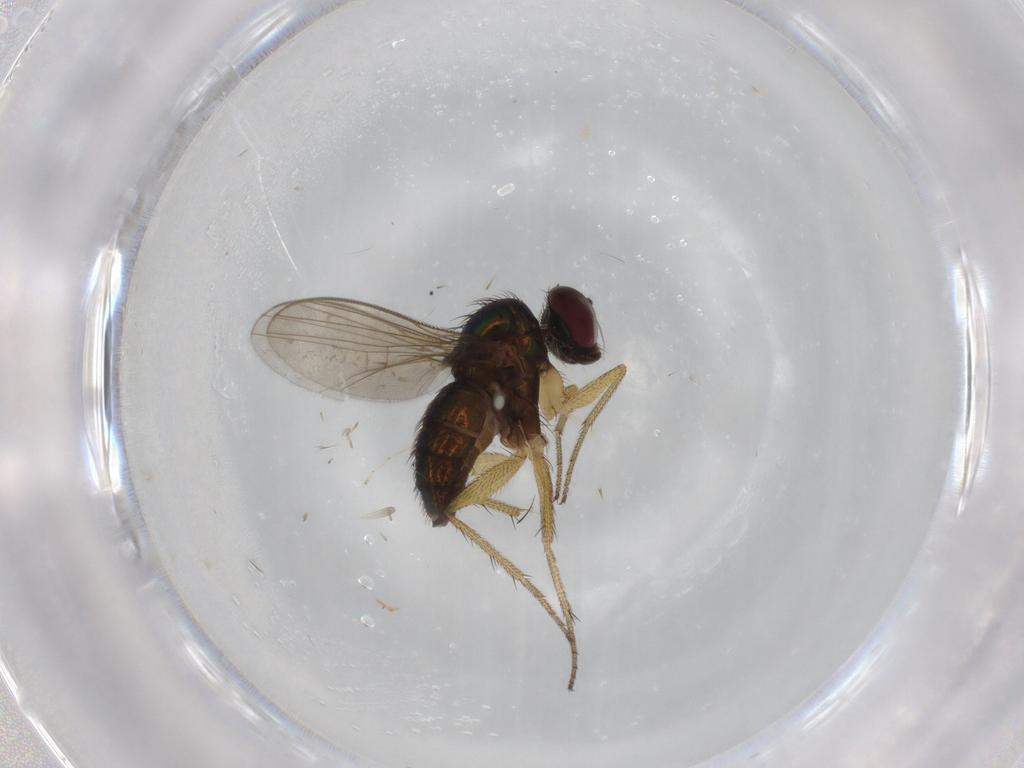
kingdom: Animalia
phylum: Arthropoda
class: Insecta
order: Diptera
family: Dolichopodidae
